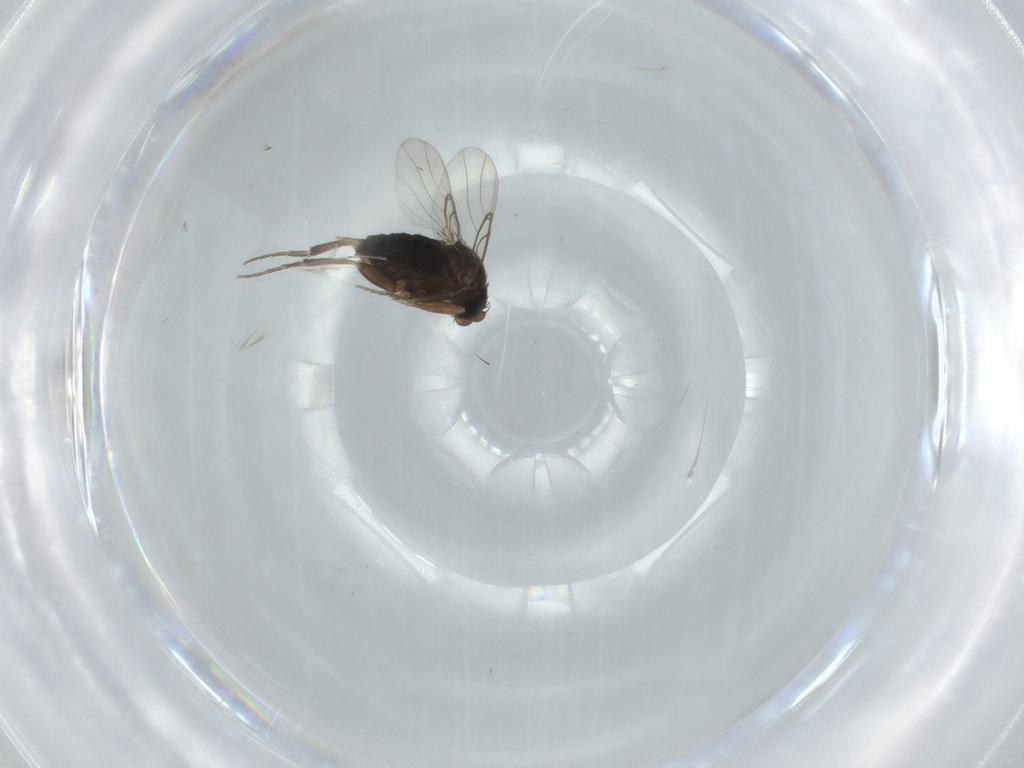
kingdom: Animalia
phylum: Arthropoda
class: Insecta
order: Diptera
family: Phoridae
